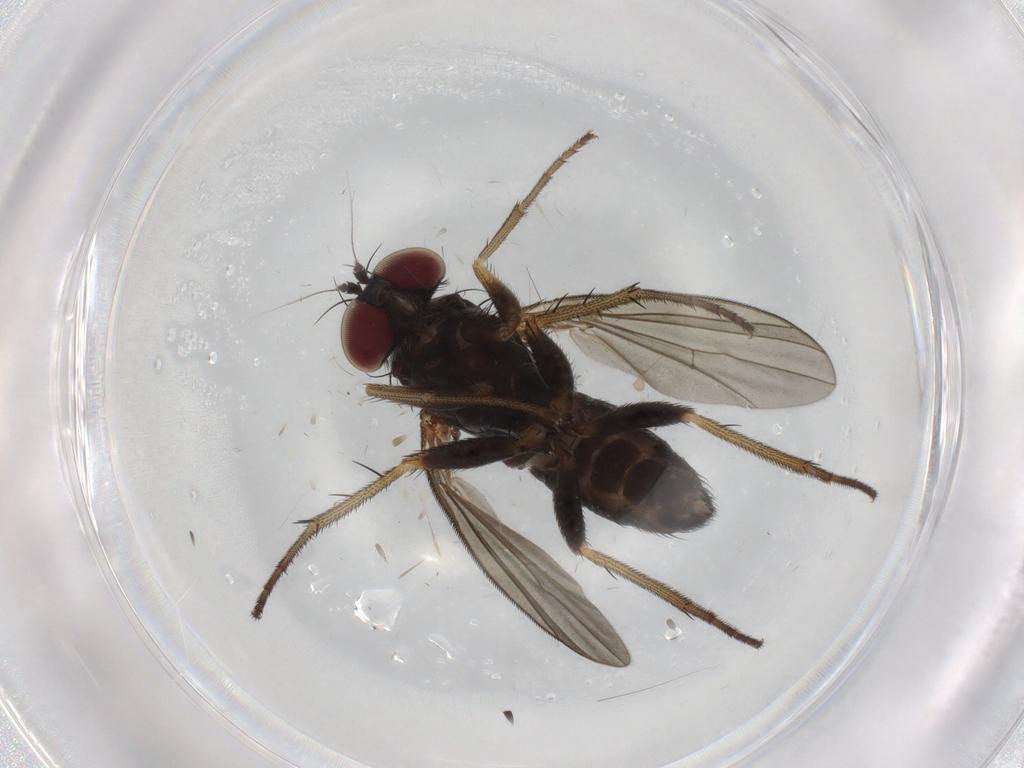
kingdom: Animalia
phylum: Arthropoda
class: Insecta
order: Diptera
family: Dolichopodidae
